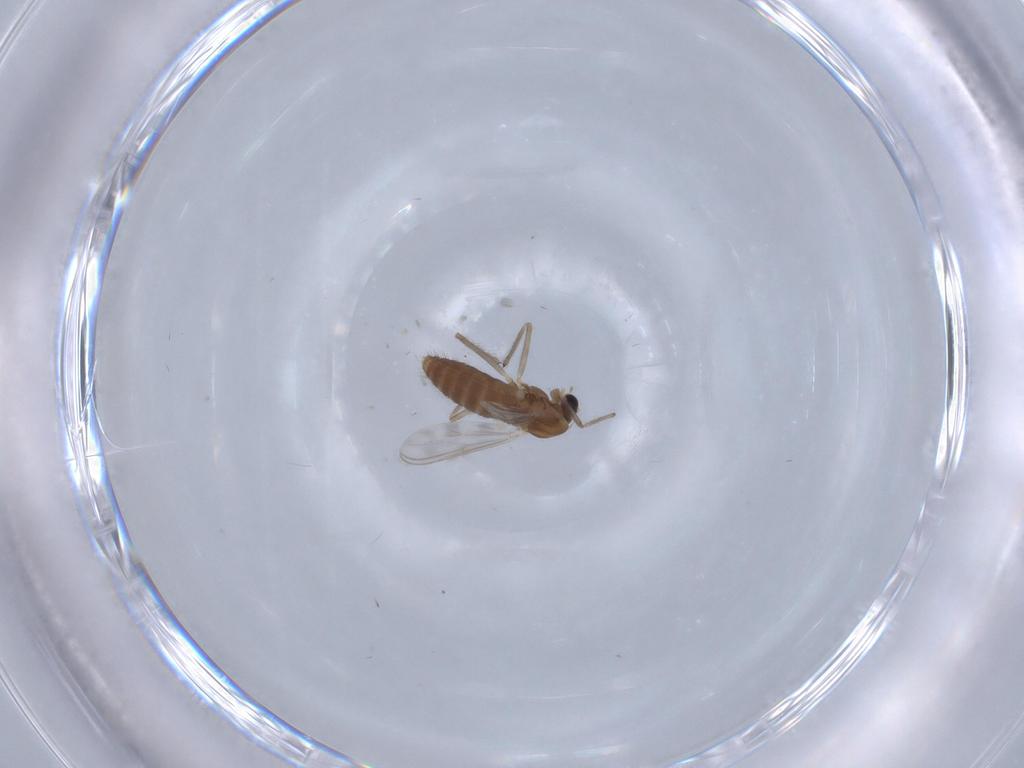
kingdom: Animalia
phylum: Arthropoda
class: Insecta
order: Diptera
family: Chironomidae
